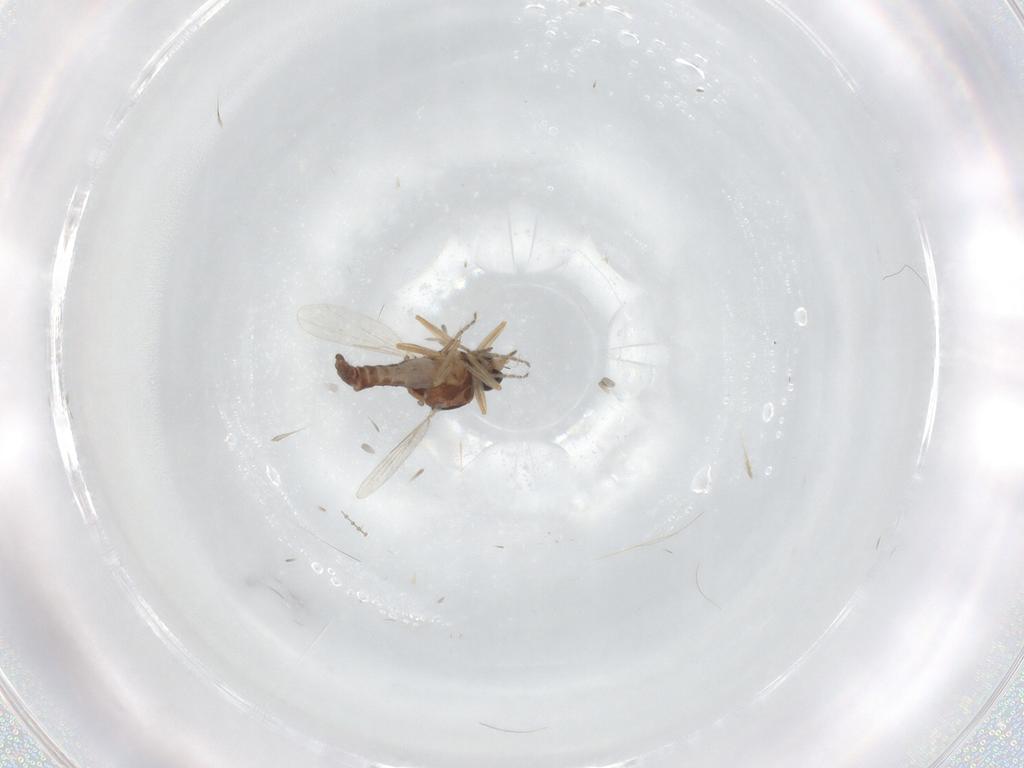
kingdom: Animalia
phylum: Arthropoda
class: Insecta
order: Diptera
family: Ceratopogonidae
